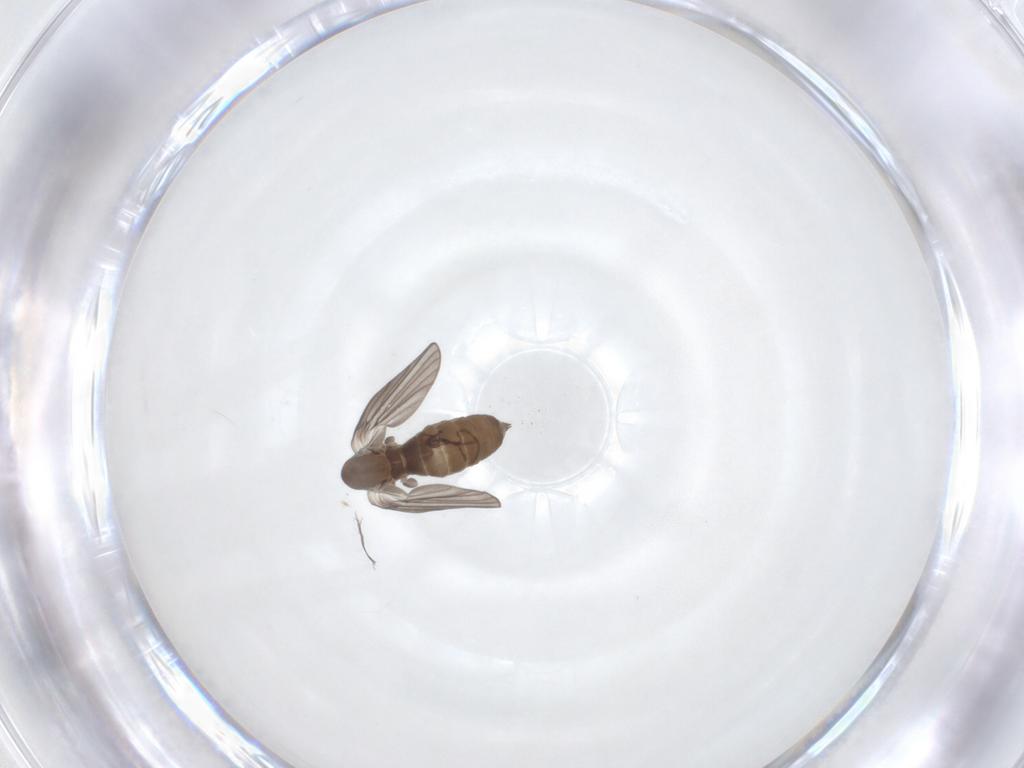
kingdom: Animalia
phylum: Arthropoda
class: Insecta
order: Diptera
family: Psychodidae
